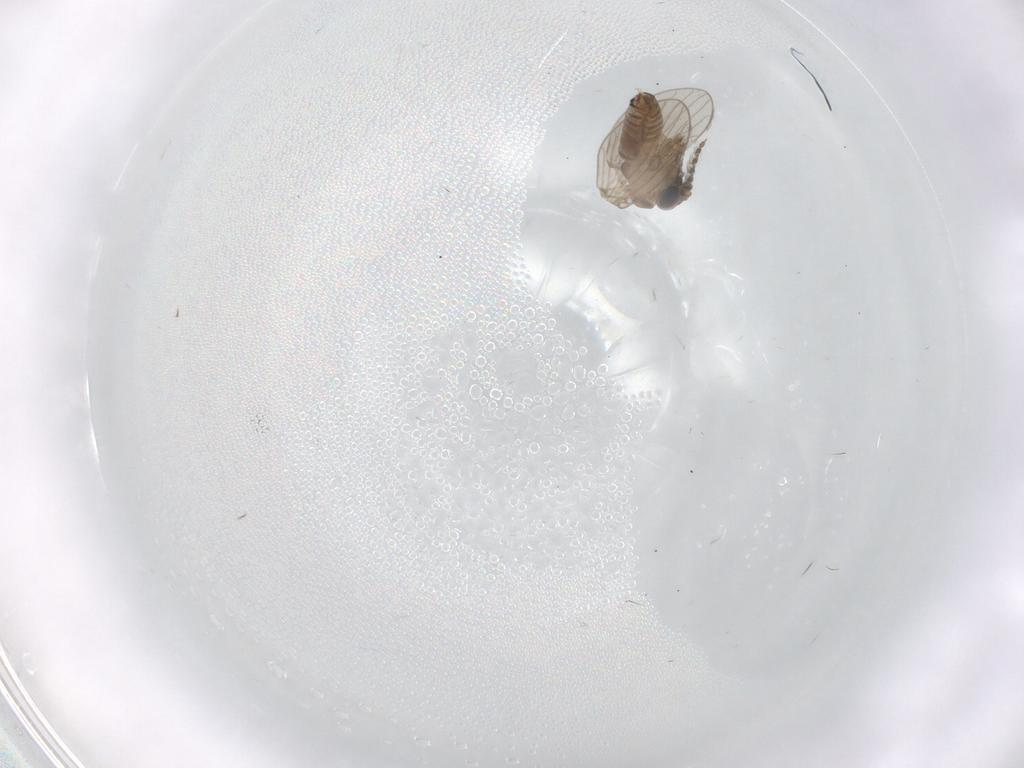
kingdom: Animalia
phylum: Arthropoda
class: Insecta
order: Diptera
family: Psychodidae
